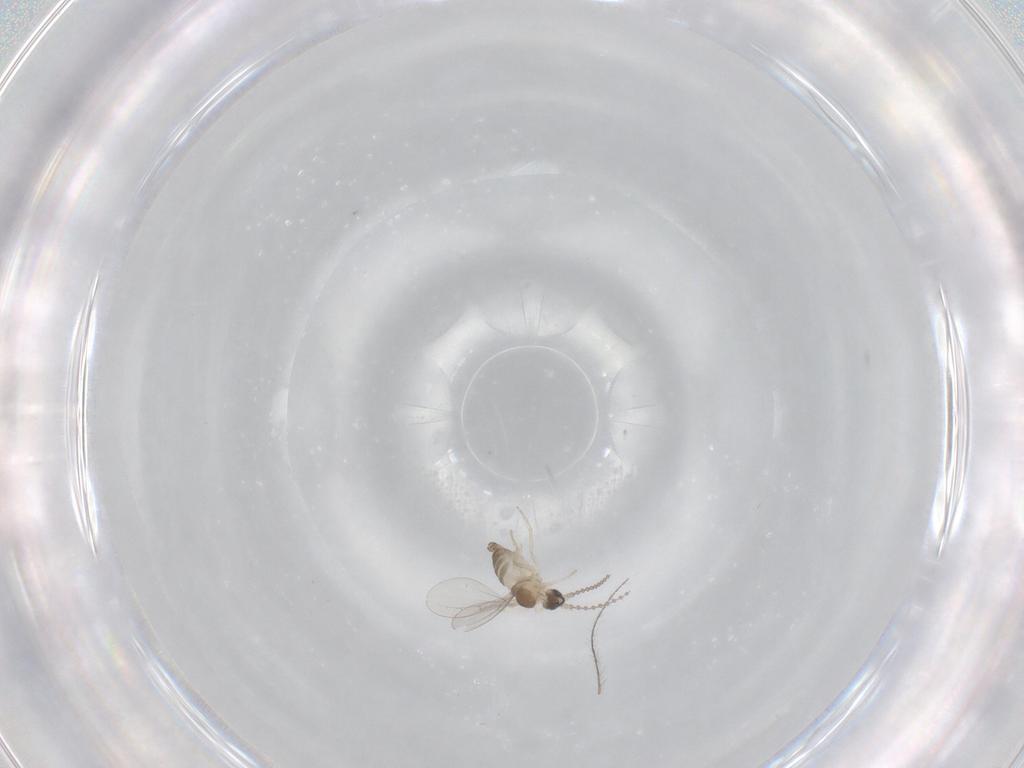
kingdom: Animalia
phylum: Arthropoda
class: Insecta
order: Diptera
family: Cecidomyiidae
